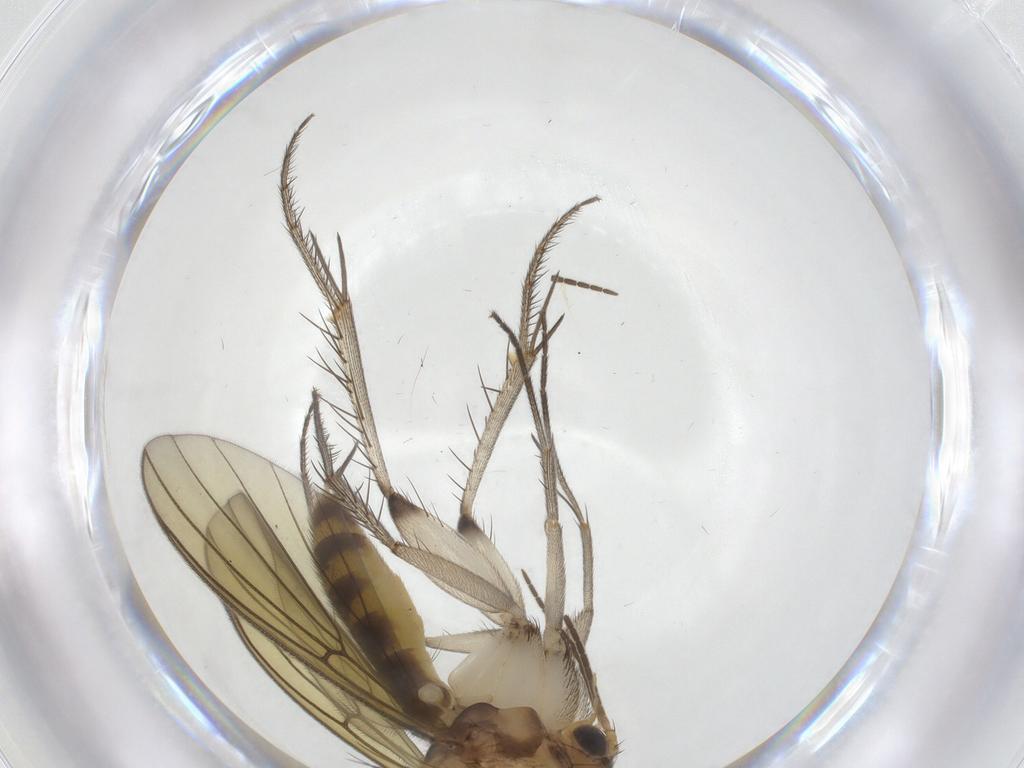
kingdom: Animalia
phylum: Arthropoda
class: Insecta
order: Diptera
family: Mycetophilidae
